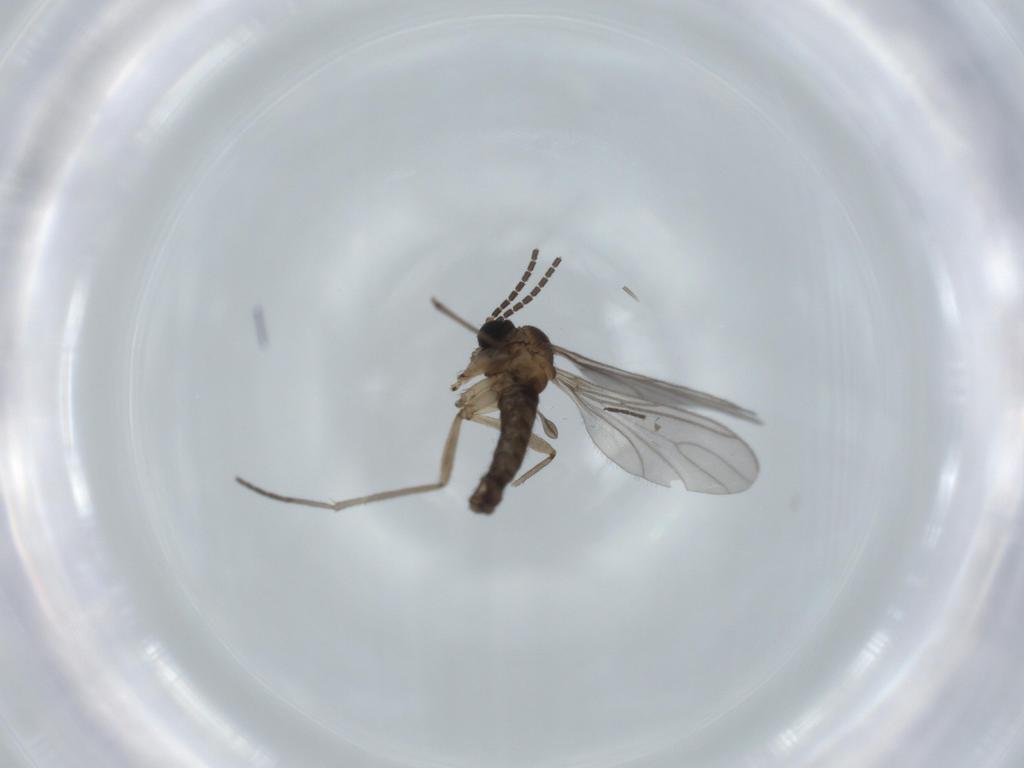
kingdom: Animalia
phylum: Arthropoda
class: Insecta
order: Diptera
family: Sciaridae
